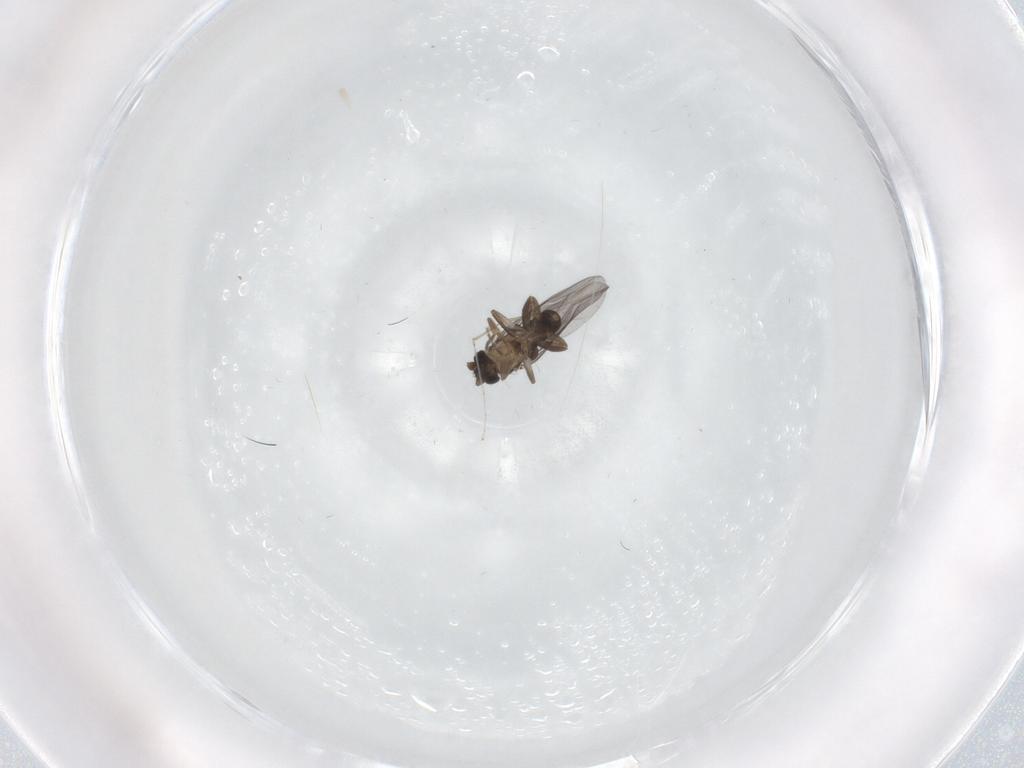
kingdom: Animalia
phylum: Arthropoda
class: Insecta
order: Diptera
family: Cecidomyiidae
